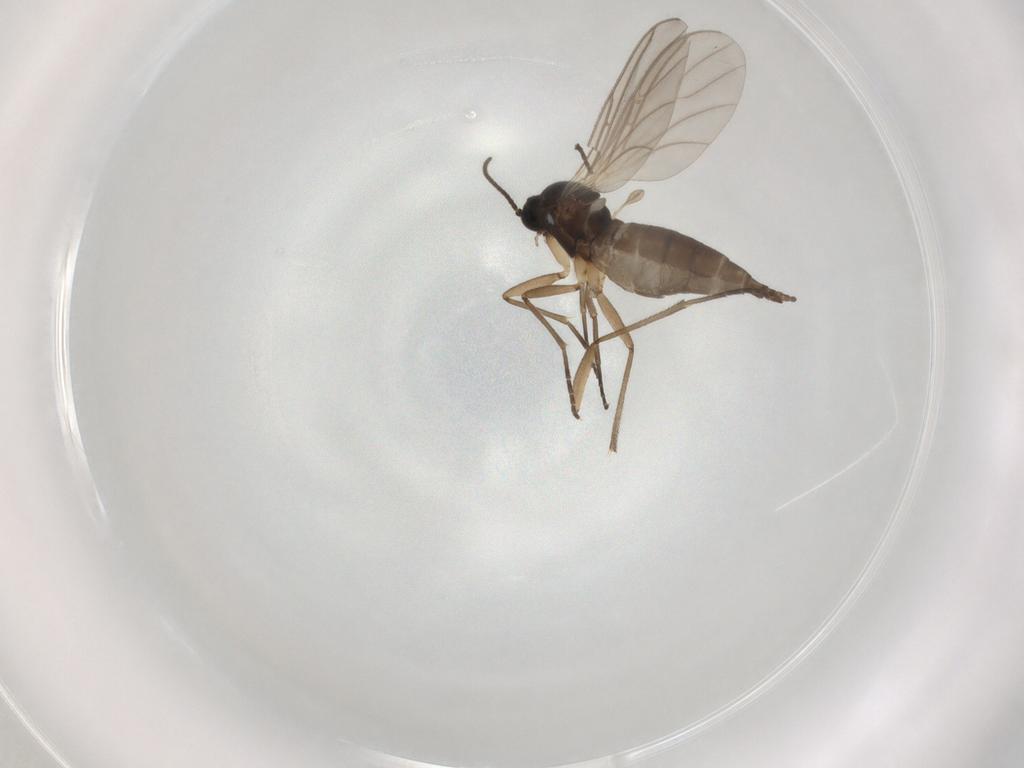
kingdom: Animalia
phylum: Arthropoda
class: Insecta
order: Diptera
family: Sciaridae
